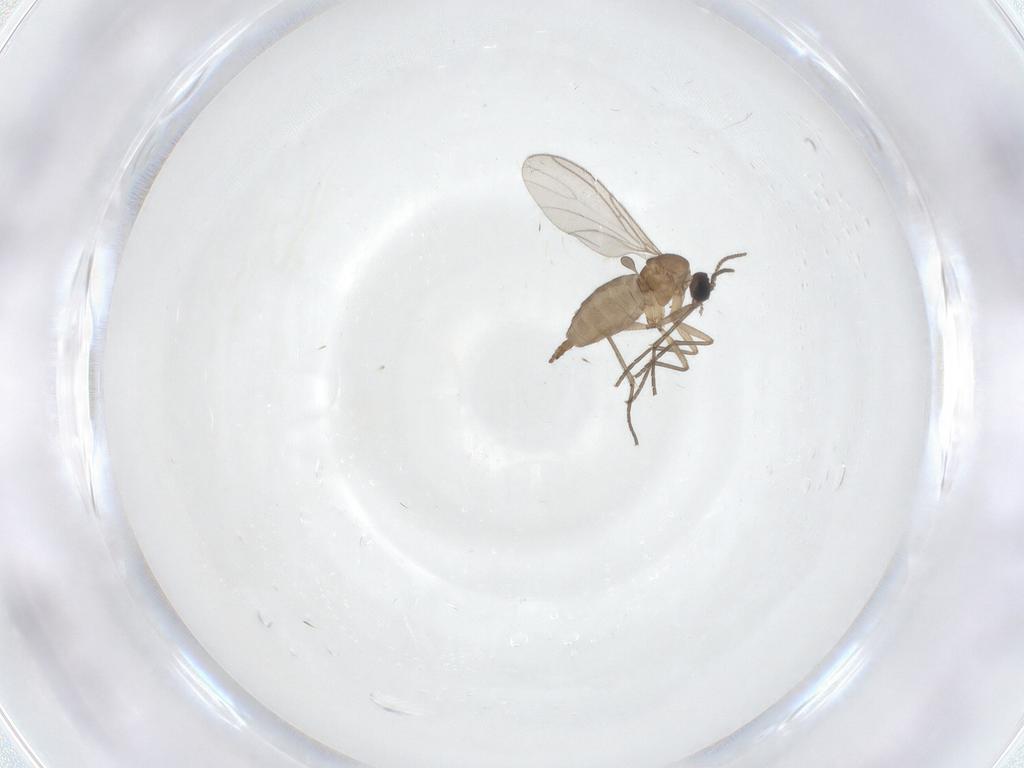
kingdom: Animalia
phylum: Arthropoda
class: Insecta
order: Diptera
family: Sciaridae
